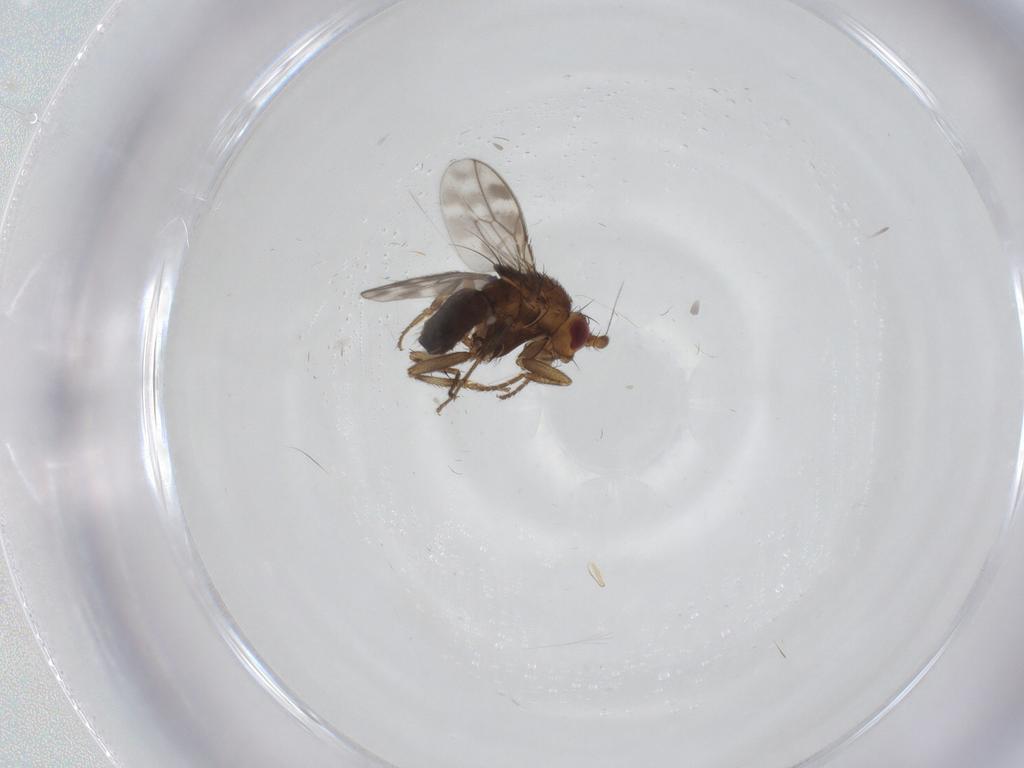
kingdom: Animalia
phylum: Arthropoda
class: Insecta
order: Diptera
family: Sphaeroceridae
